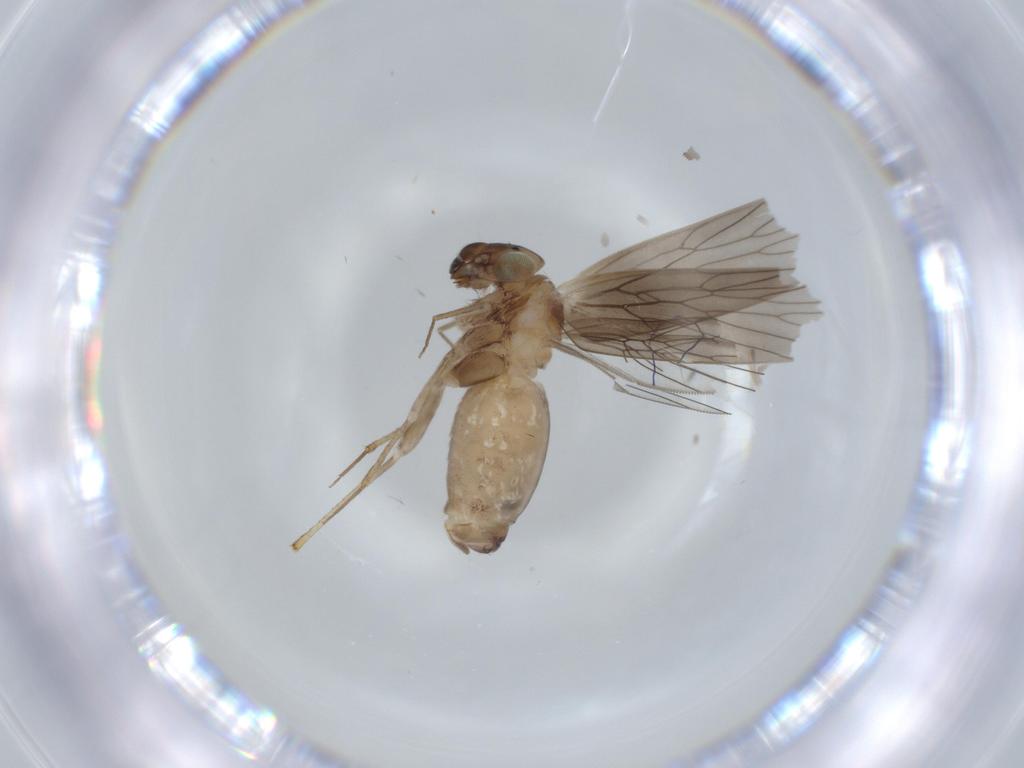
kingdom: Animalia
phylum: Arthropoda
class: Insecta
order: Psocodea
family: Lepidopsocidae
